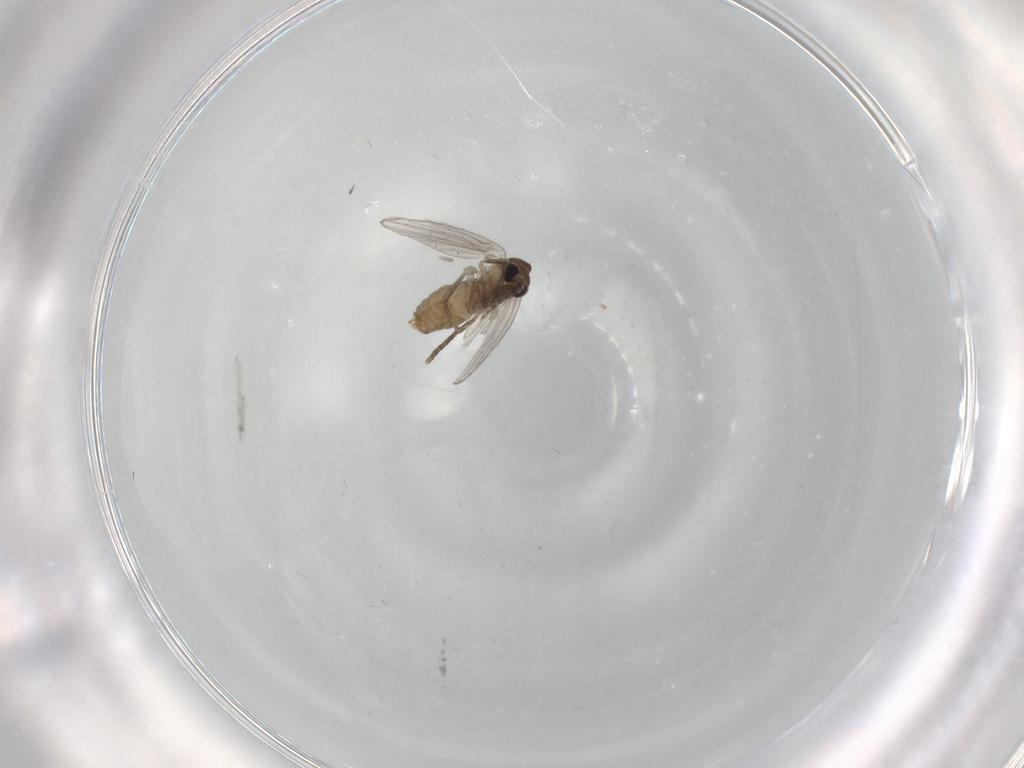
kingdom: Animalia
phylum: Arthropoda
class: Insecta
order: Diptera
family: Psychodidae
